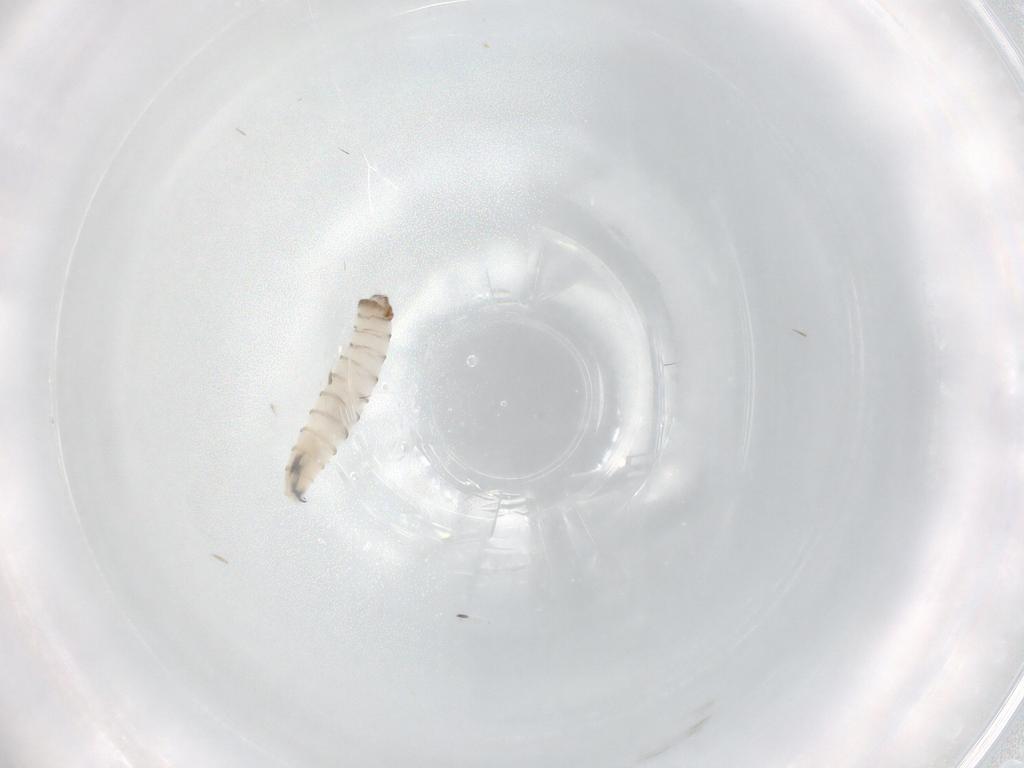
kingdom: Animalia
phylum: Arthropoda
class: Insecta
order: Diptera
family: Sarcophagidae
